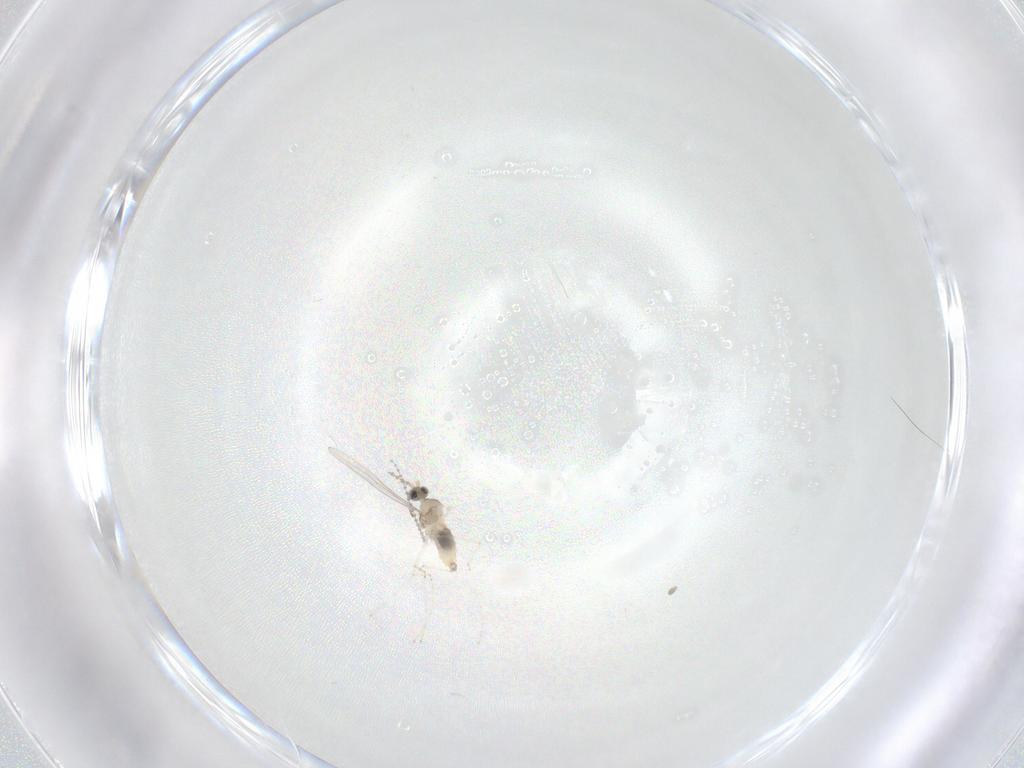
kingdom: Animalia
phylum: Arthropoda
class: Insecta
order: Diptera
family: Cecidomyiidae
